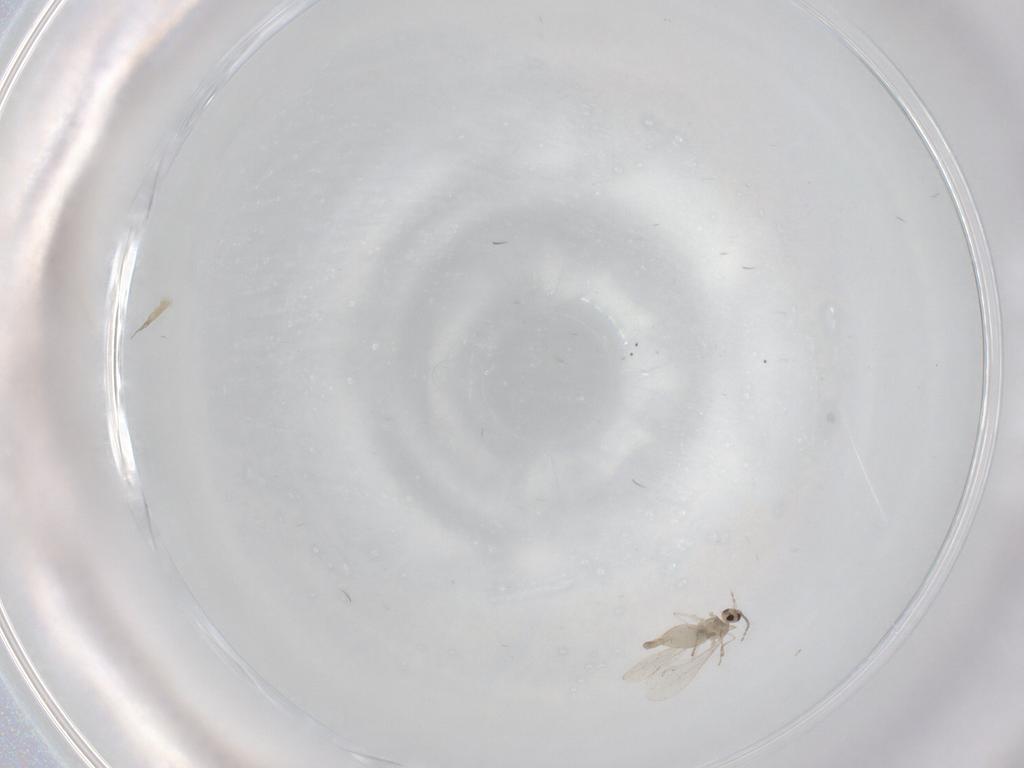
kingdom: Animalia
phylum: Arthropoda
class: Insecta
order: Diptera
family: Cecidomyiidae
